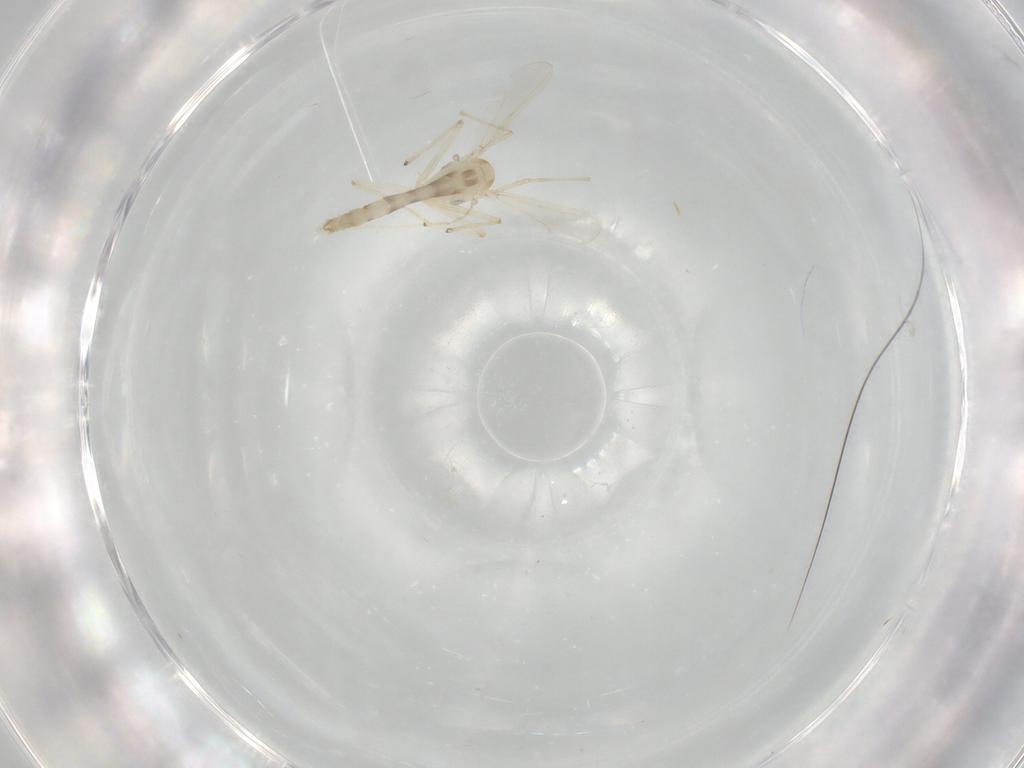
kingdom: Animalia
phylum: Arthropoda
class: Insecta
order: Diptera
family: Chironomidae
